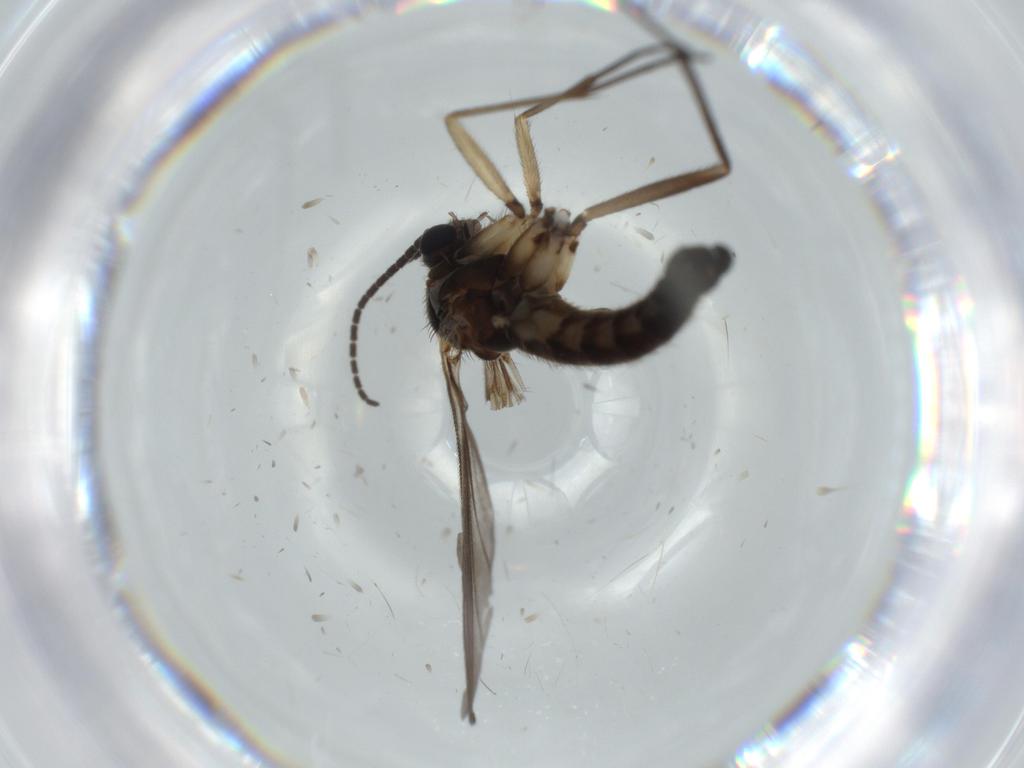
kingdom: Animalia
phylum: Arthropoda
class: Insecta
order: Diptera
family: Sciaridae
